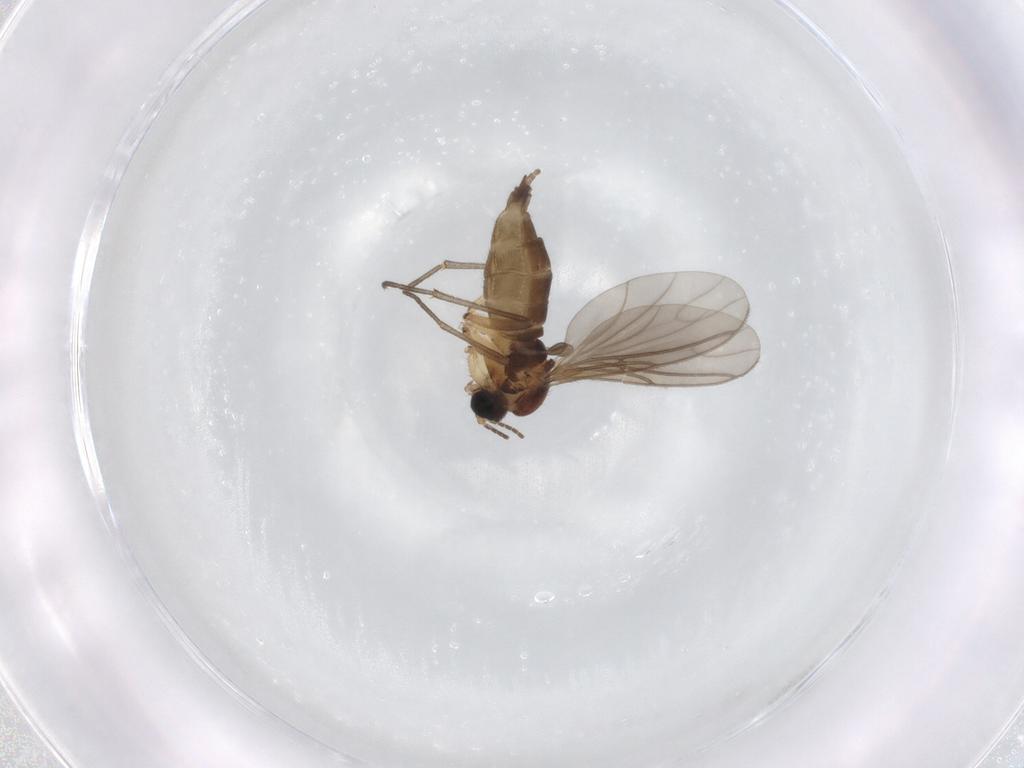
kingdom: Animalia
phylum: Arthropoda
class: Insecta
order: Diptera
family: Sciaridae
